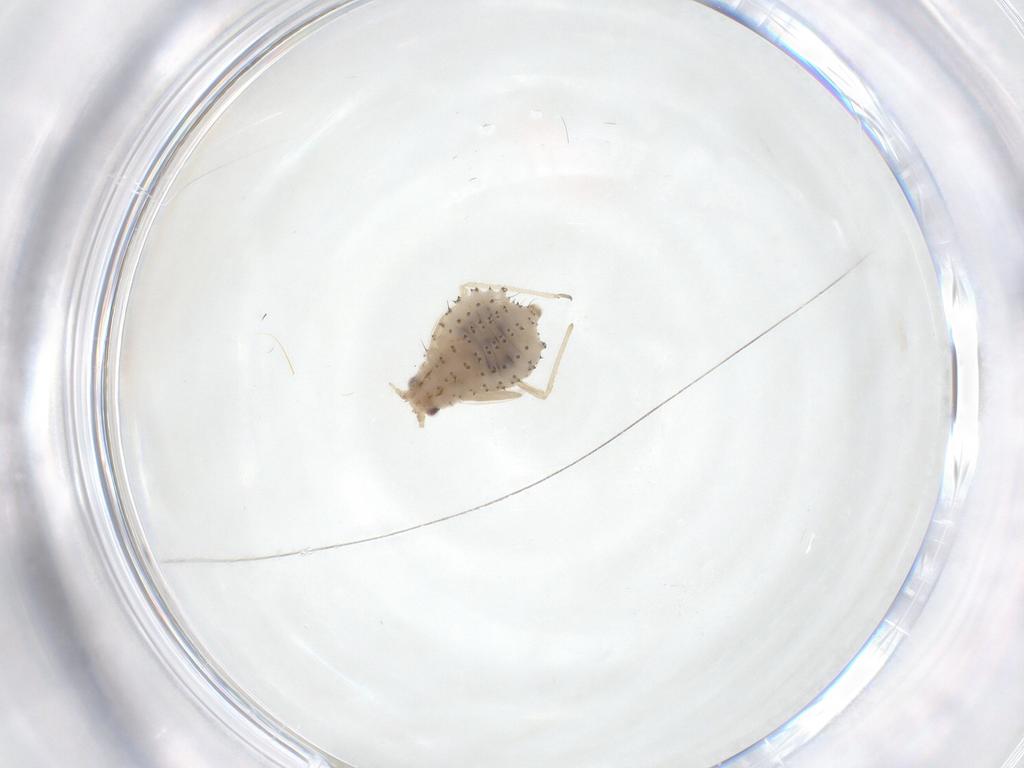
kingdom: Animalia
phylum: Arthropoda
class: Insecta
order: Hemiptera
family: Aphididae
